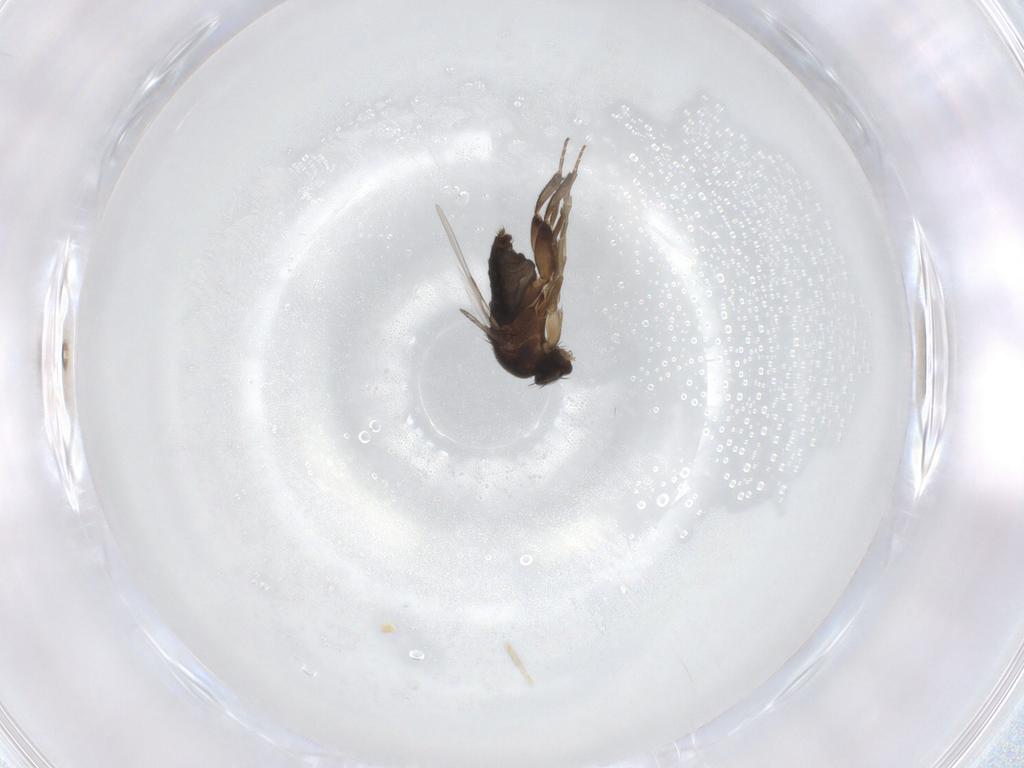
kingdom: Animalia
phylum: Arthropoda
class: Insecta
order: Diptera
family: Phoridae
